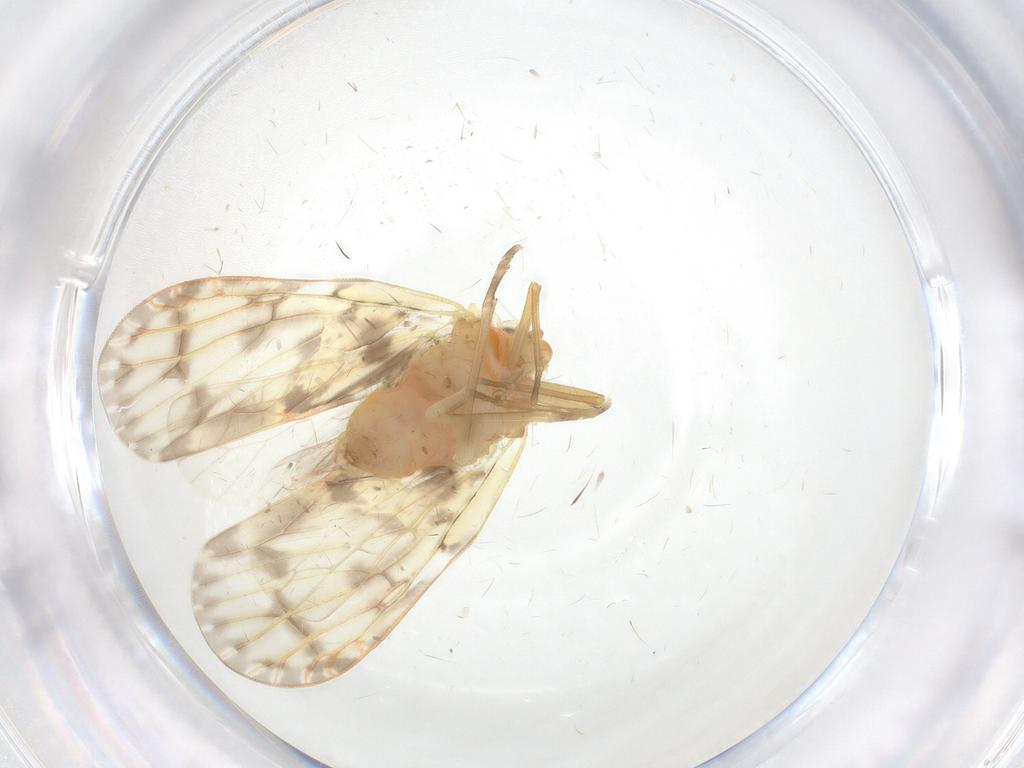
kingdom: Animalia
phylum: Arthropoda
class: Insecta
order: Hemiptera
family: Derbidae
